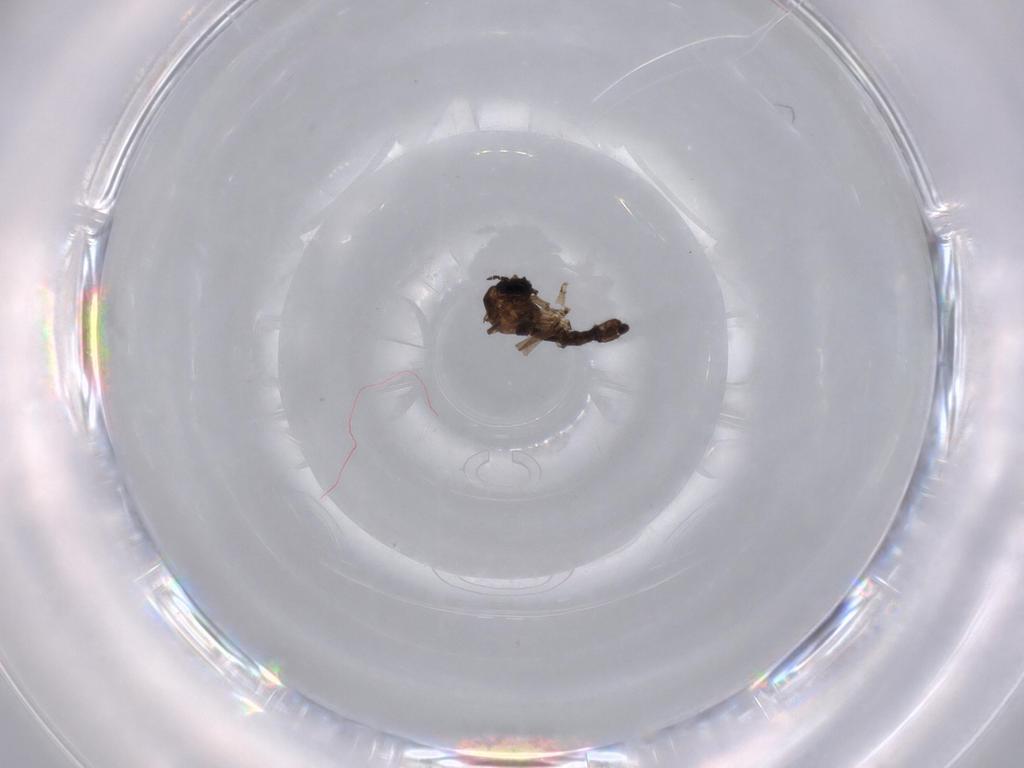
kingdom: Animalia
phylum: Arthropoda
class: Insecta
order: Diptera
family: Sciaridae
